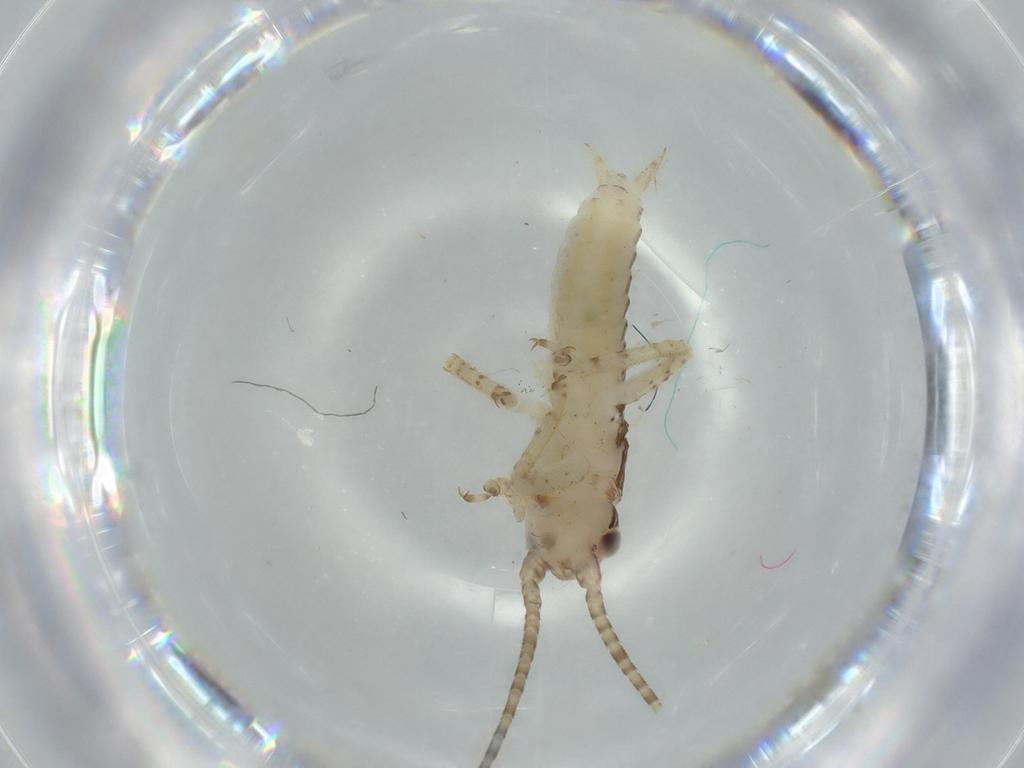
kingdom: Animalia
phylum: Arthropoda
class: Insecta
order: Orthoptera
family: Gryllidae
